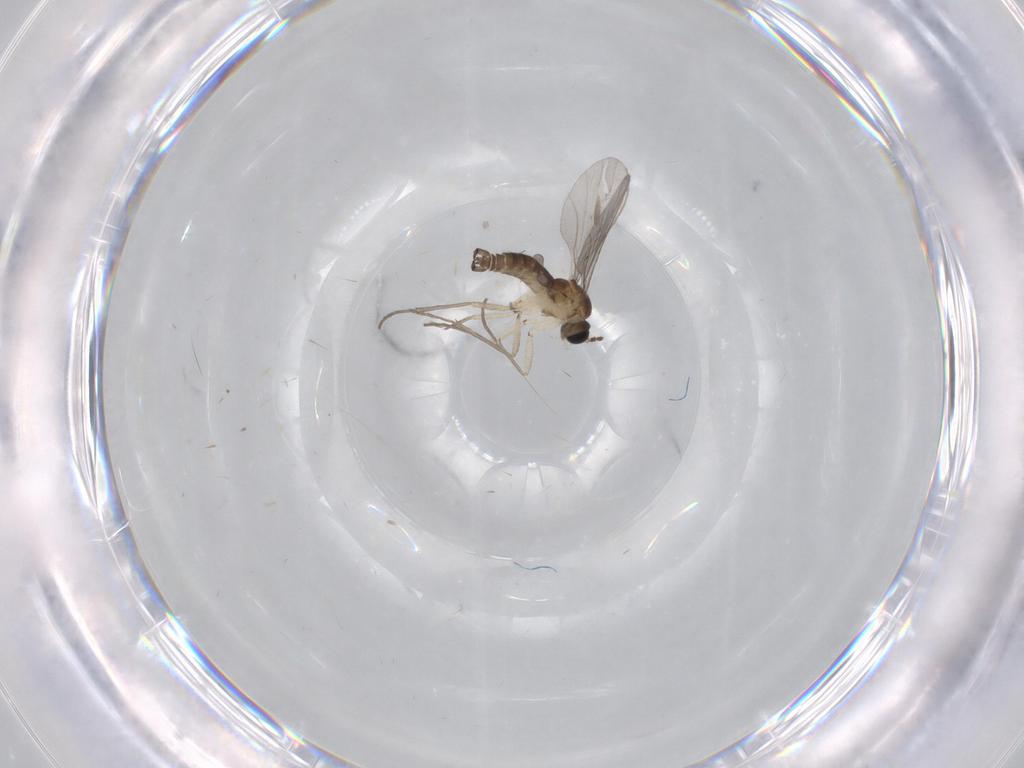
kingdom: Animalia
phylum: Arthropoda
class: Insecta
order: Diptera
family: Sciaridae
